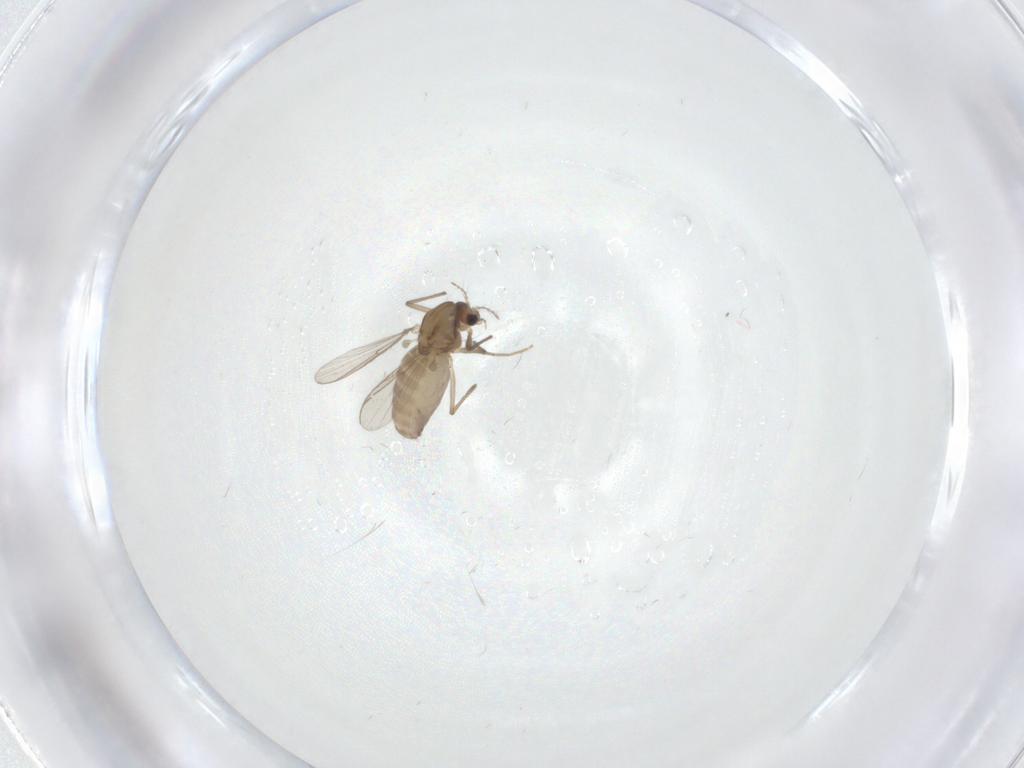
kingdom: Animalia
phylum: Arthropoda
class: Insecta
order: Diptera
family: Chironomidae
